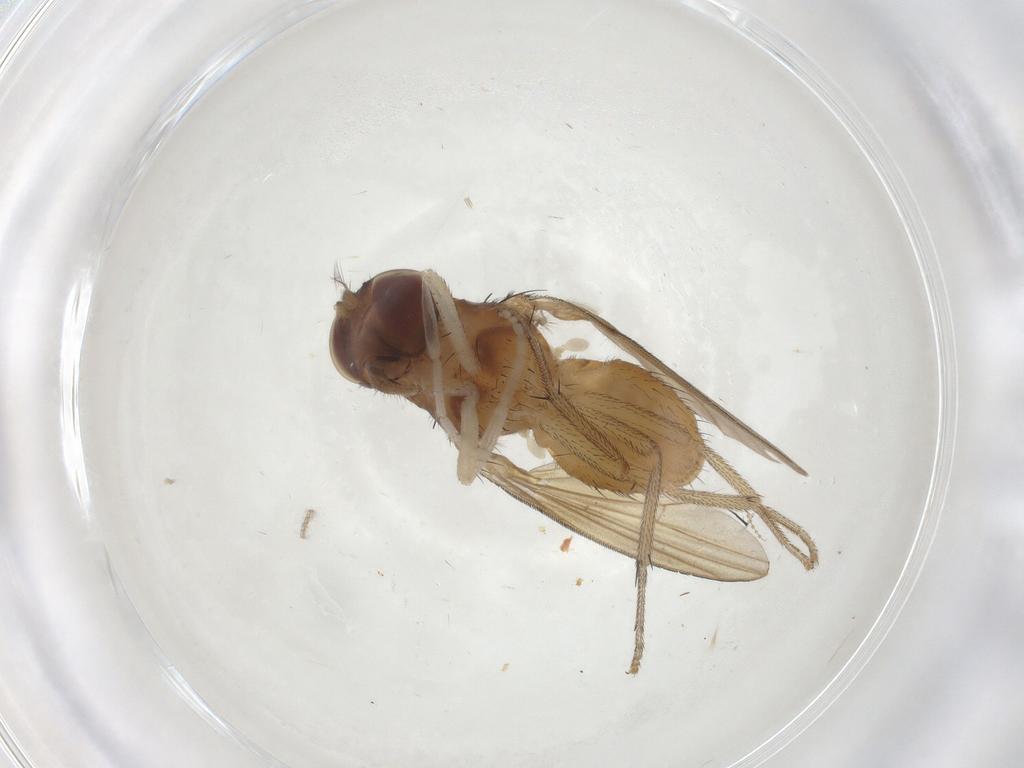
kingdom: Animalia
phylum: Arthropoda
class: Insecta
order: Diptera
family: Lauxaniidae
